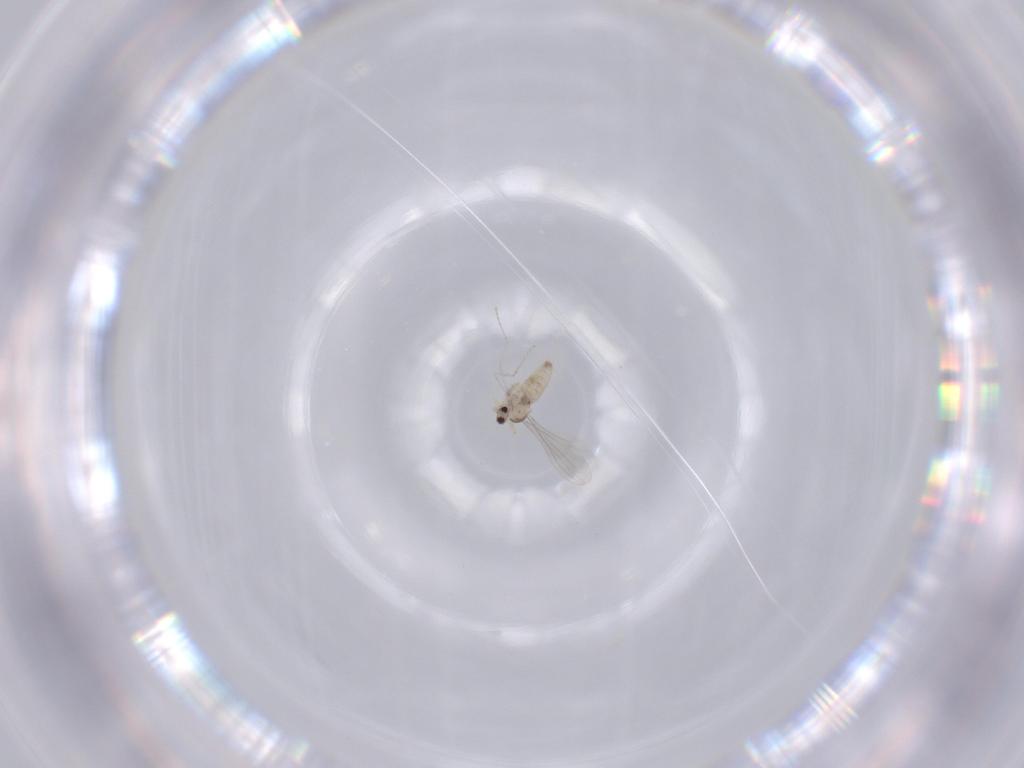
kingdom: Animalia
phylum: Arthropoda
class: Insecta
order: Diptera
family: Cecidomyiidae
